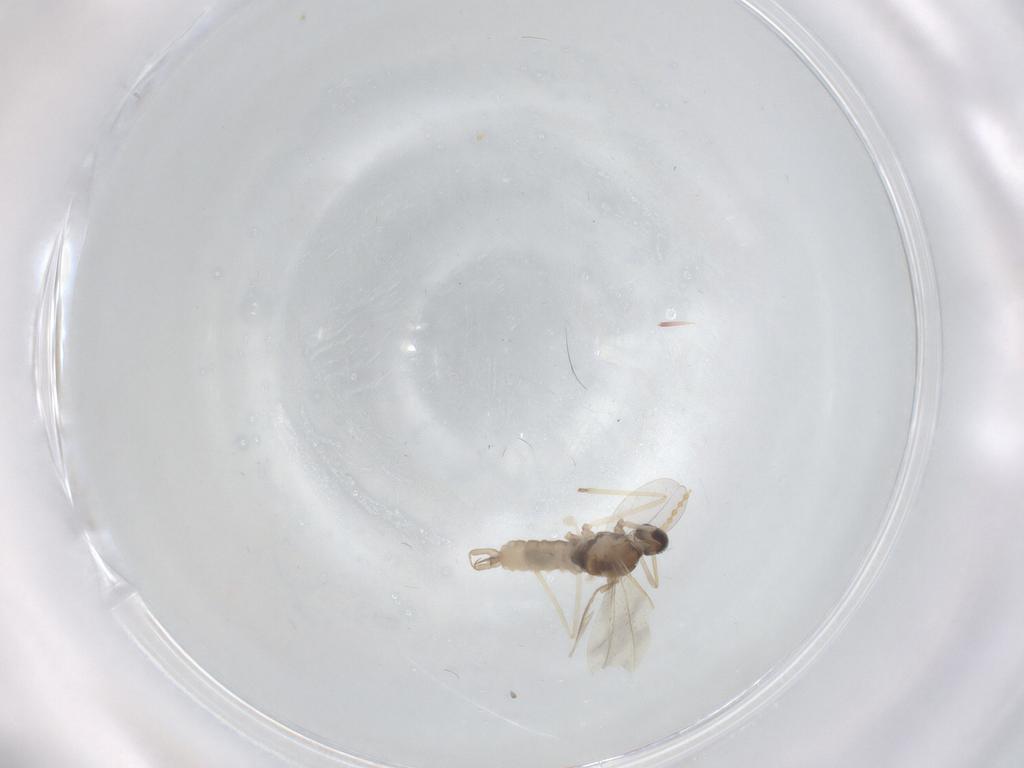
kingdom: Animalia
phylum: Arthropoda
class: Insecta
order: Diptera
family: Cecidomyiidae
